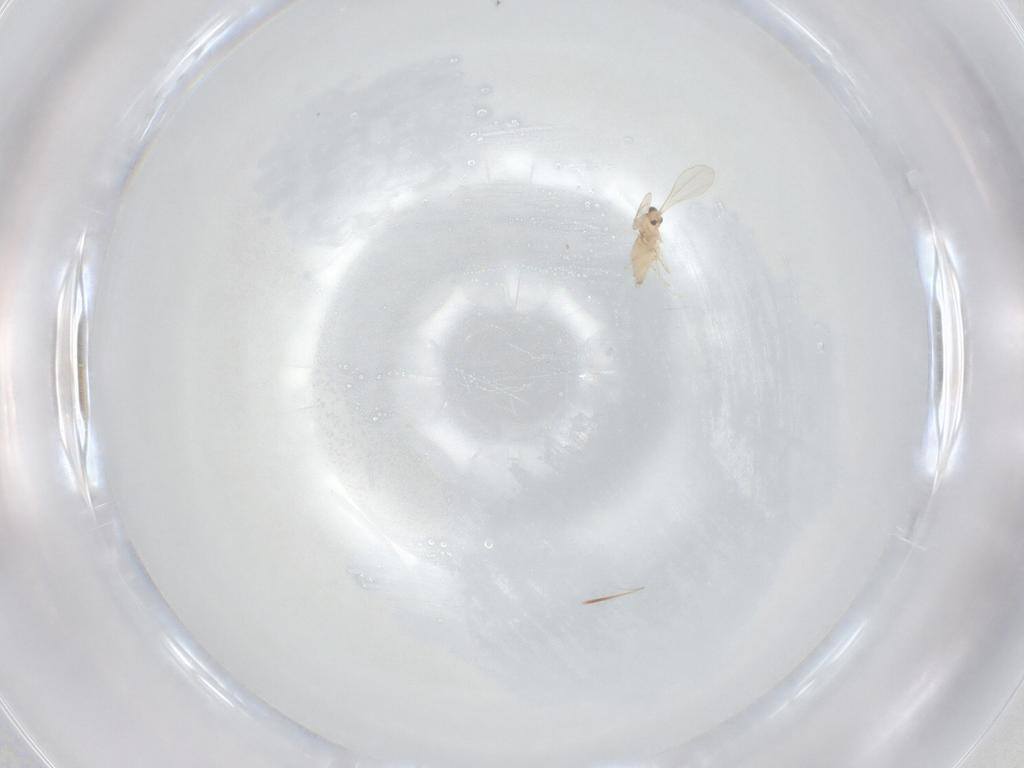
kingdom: Animalia
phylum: Arthropoda
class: Insecta
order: Diptera
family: Cecidomyiidae
